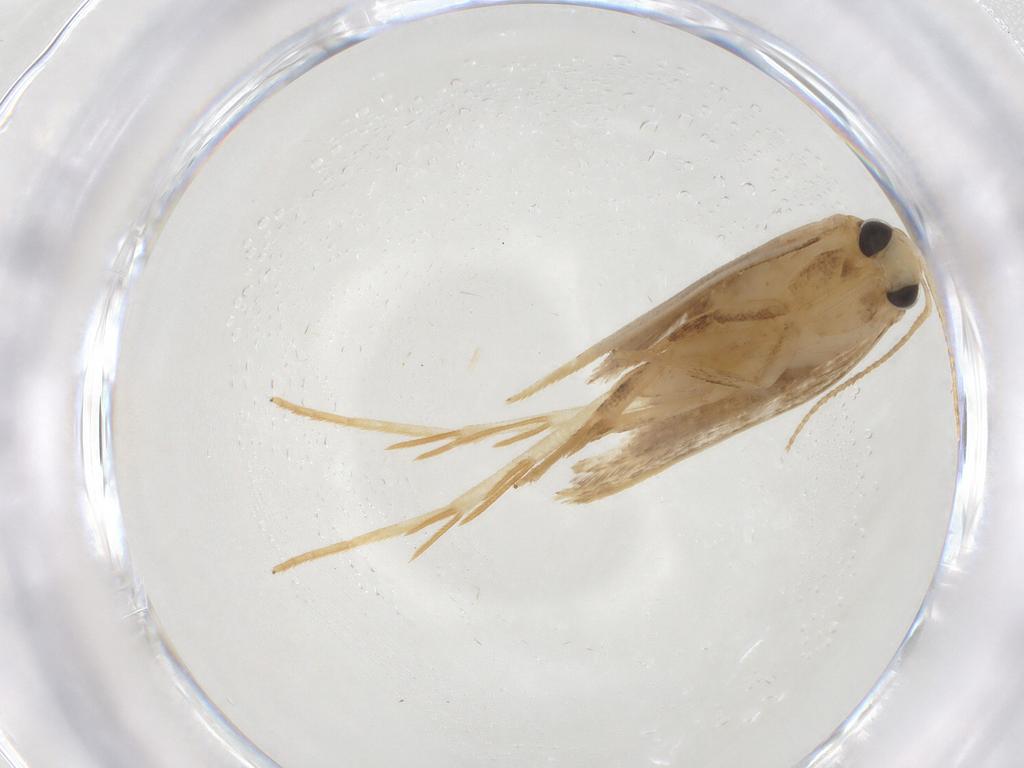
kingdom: Animalia
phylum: Arthropoda
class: Insecta
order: Lepidoptera
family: Gelechiidae
